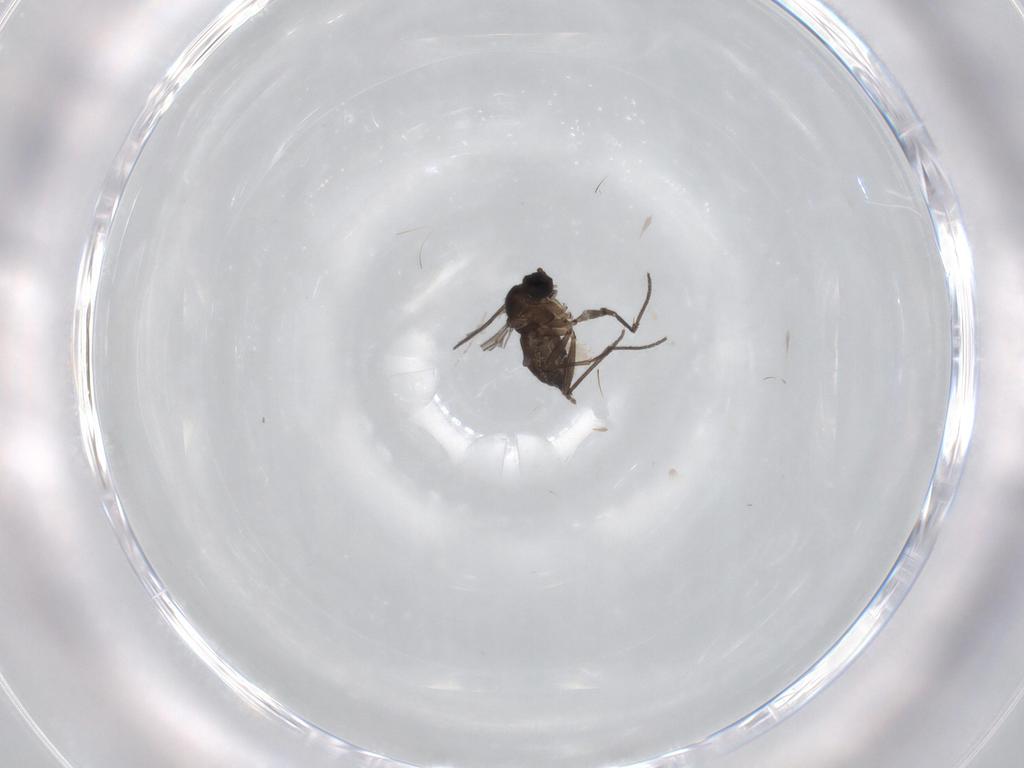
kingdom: Animalia
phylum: Arthropoda
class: Insecta
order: Diptera
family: Sciaridae
